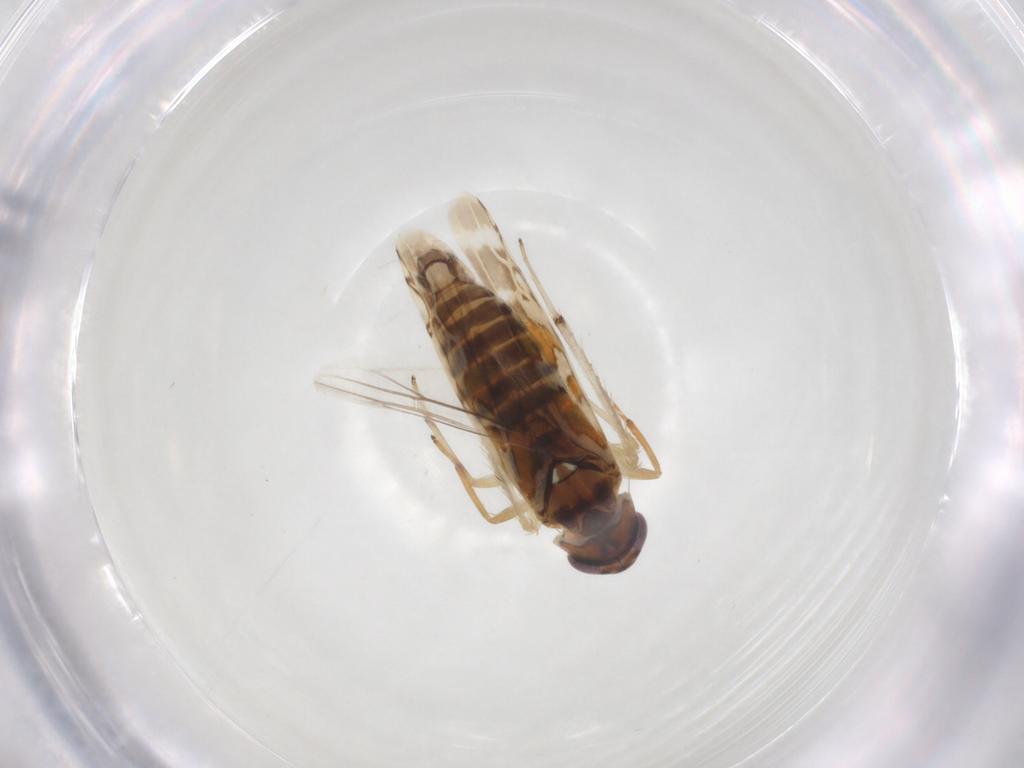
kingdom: Animalia
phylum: Arthropoda
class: Insecta
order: Hemiptera
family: Cicadellidae
